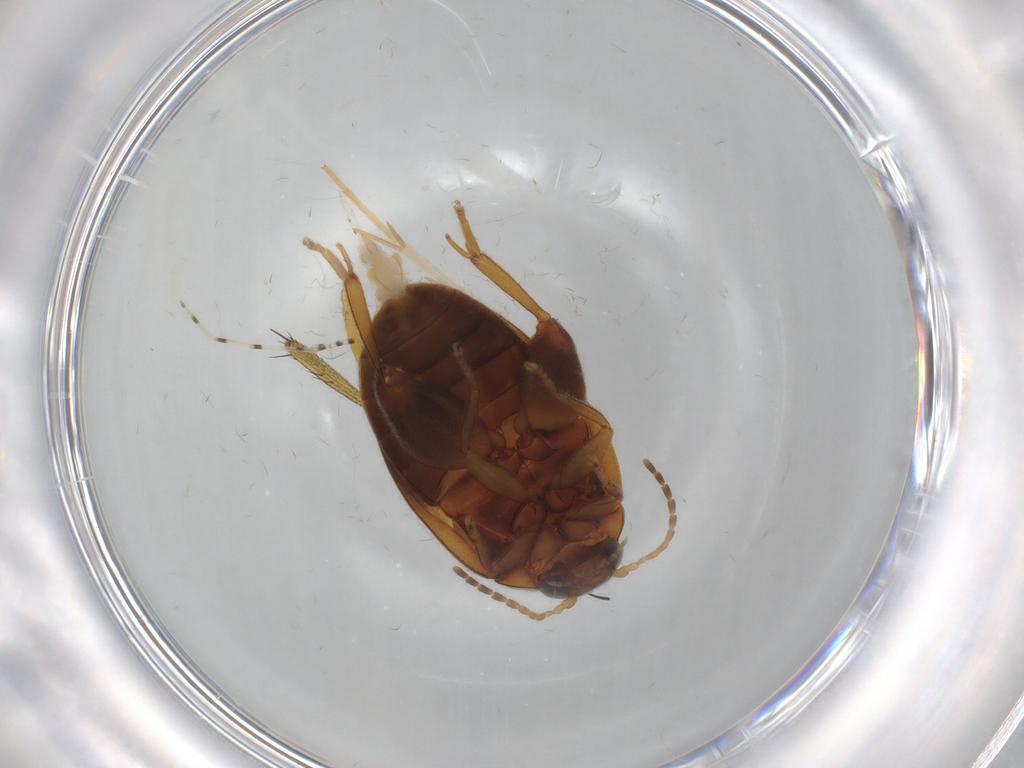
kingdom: Animalia
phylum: Arthropoda
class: Insecta
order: Coleoptera
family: Scirtidae
